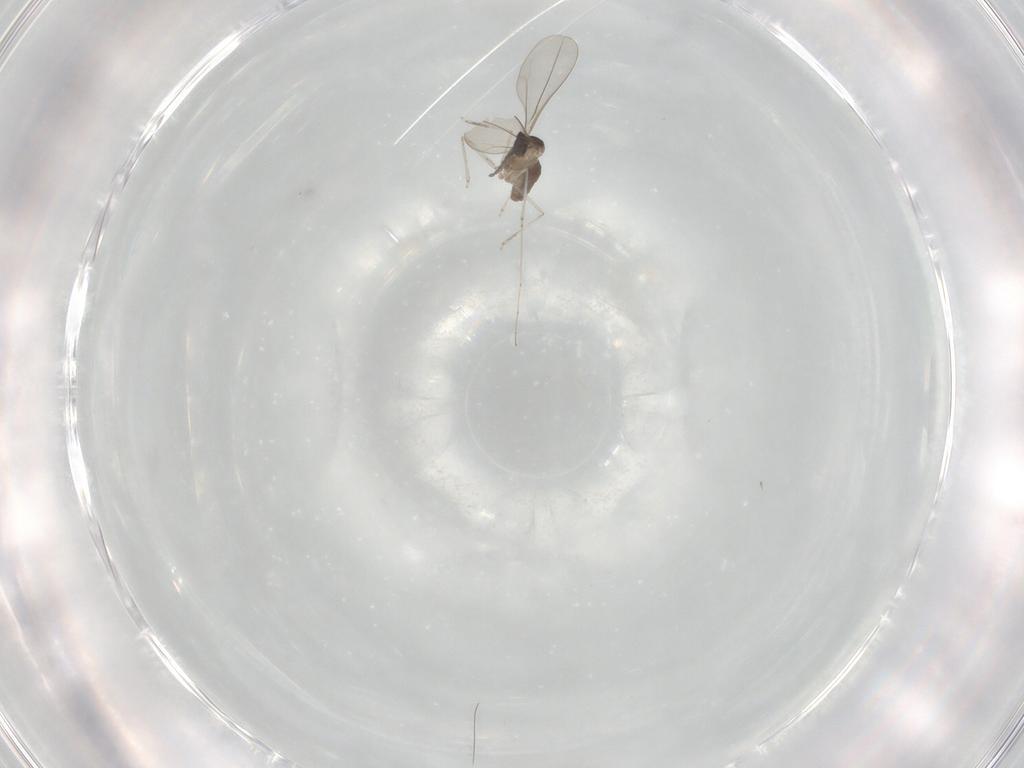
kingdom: Animalia
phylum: Arthropoda
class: Insecta
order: Diptera
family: Cecidomyiidae
